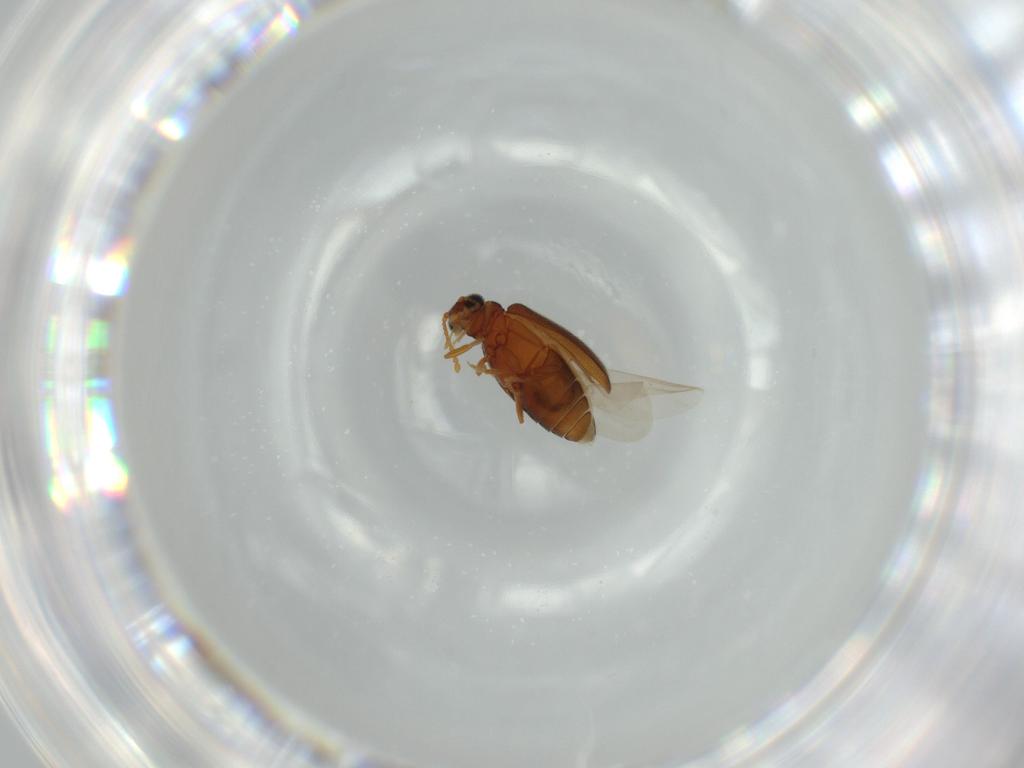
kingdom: Animalia
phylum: Arthropoda
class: Insecta
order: Coleoptera
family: Aderidae
